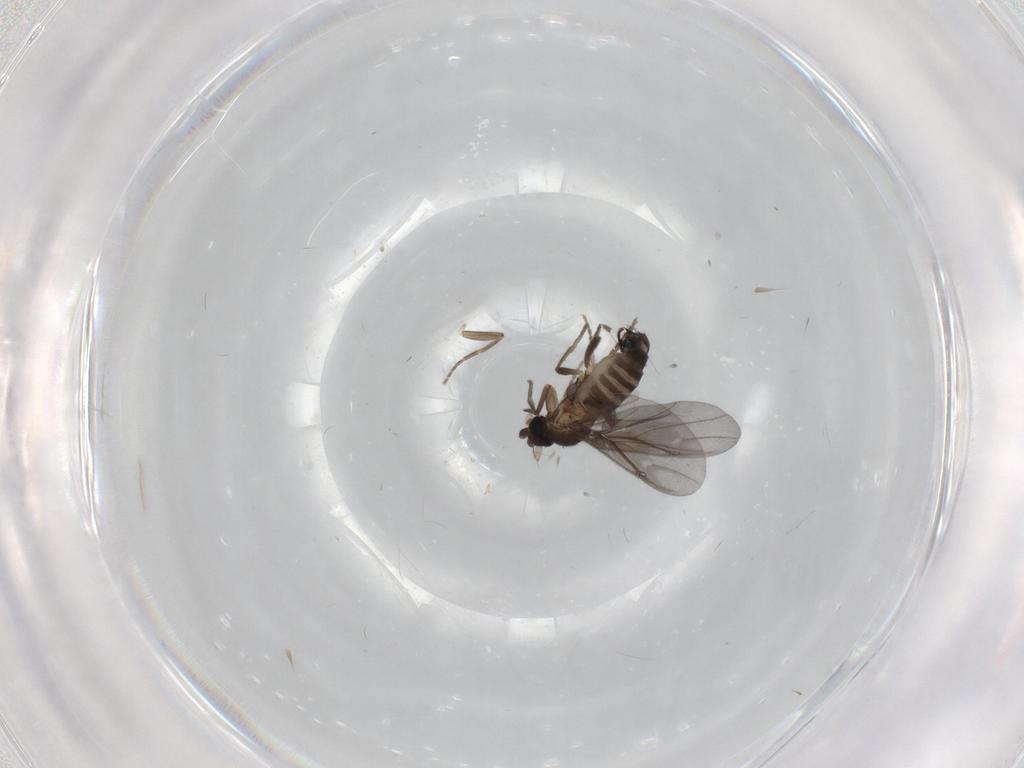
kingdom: Animalia
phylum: Arthropoda
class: Insecta
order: Diptera
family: Phoridae
